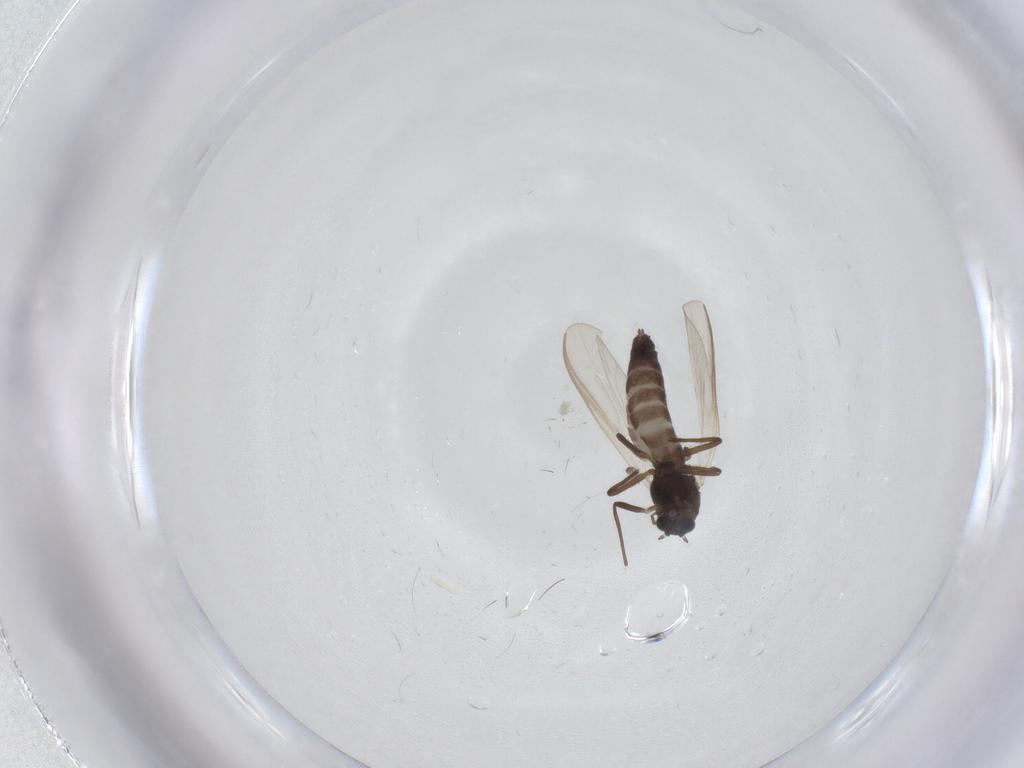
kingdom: Animalia
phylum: Arthropoda
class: Insecta
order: Diptera
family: Chironomidae
